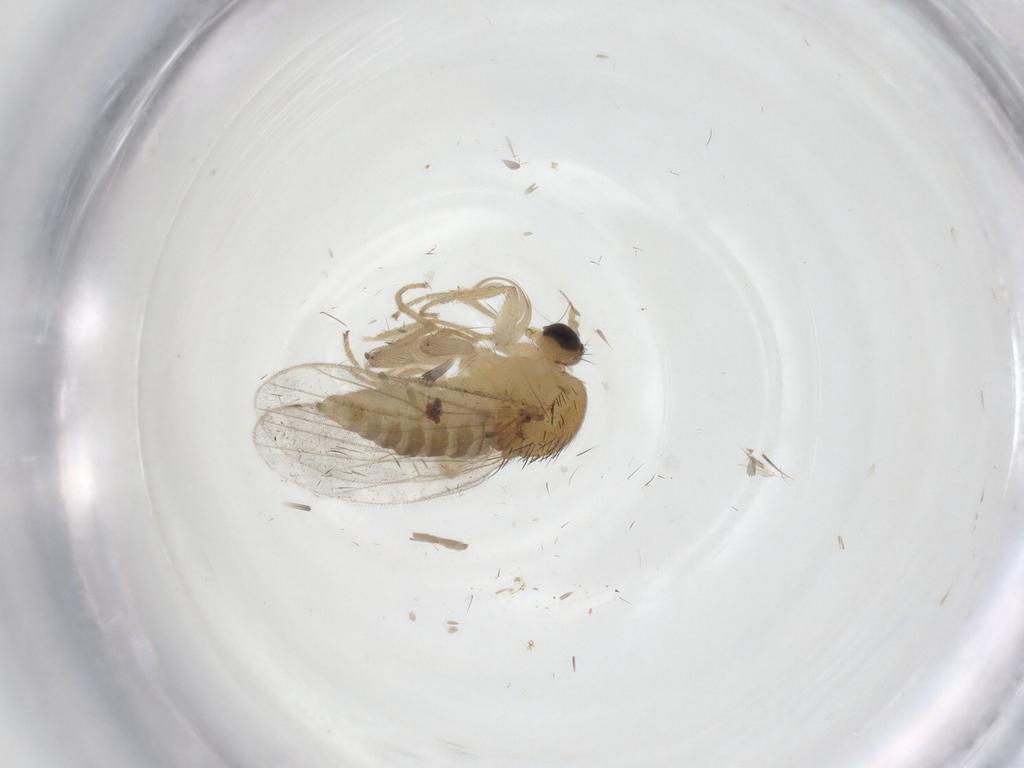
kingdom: Animalia
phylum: Arthropoda
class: Insecta
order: Diptera
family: Hybotidae
